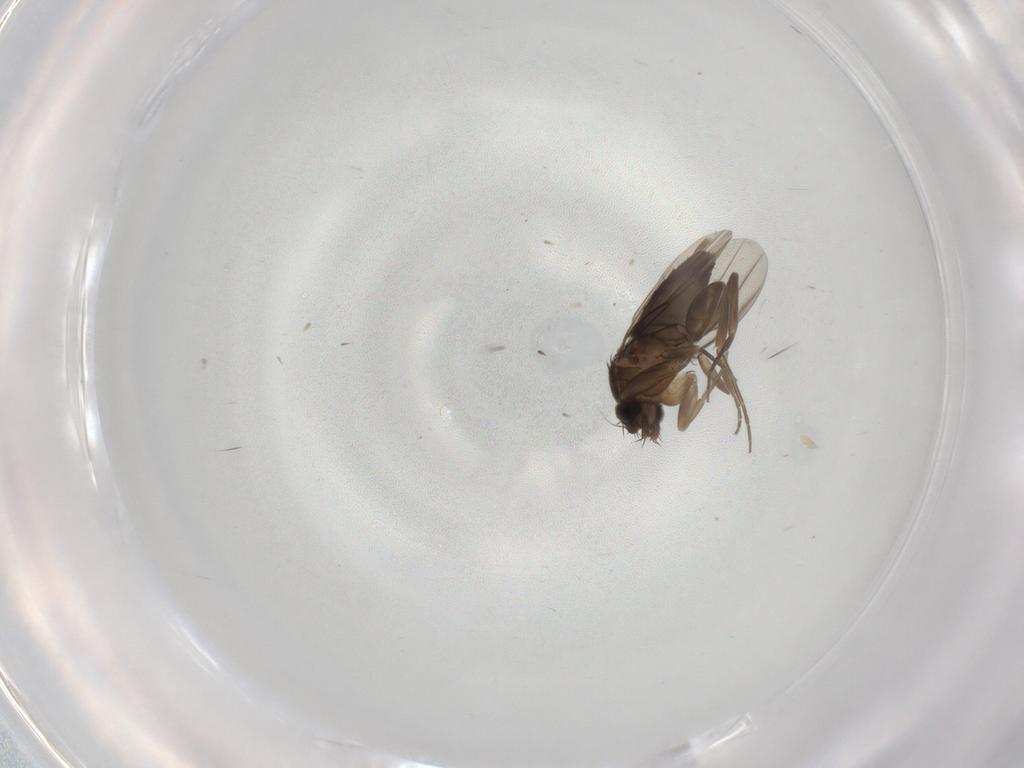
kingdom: Animalia
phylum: Arthropoda
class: Insecta
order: Diptera
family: Phoridae
